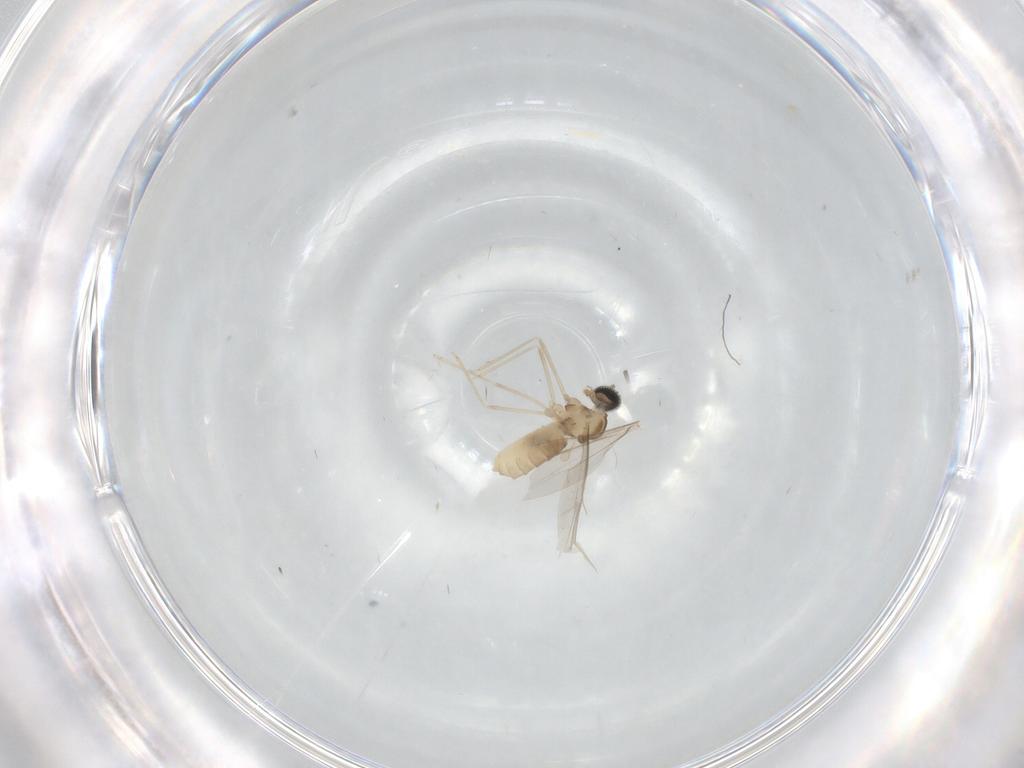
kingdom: Animalia
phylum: Arthropoda
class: Insecta
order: Diptera
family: Cecidomyiidae
